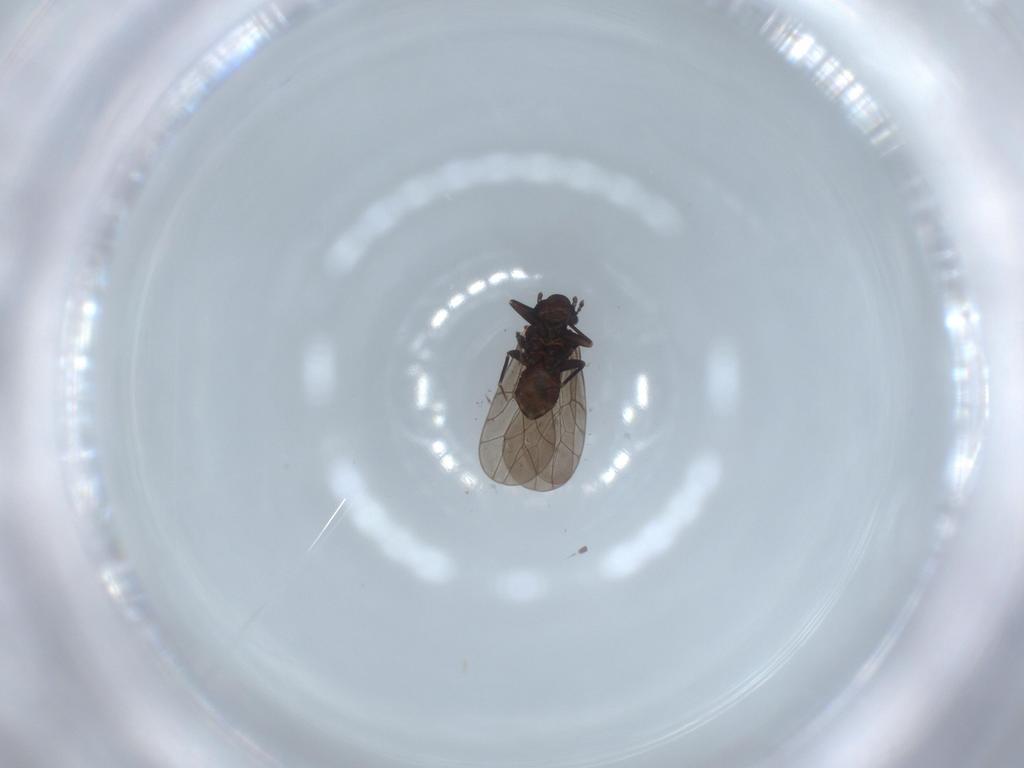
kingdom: Animalia
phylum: Arthropoda
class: Insecta
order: Psocodea
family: Lepidopsocidae
